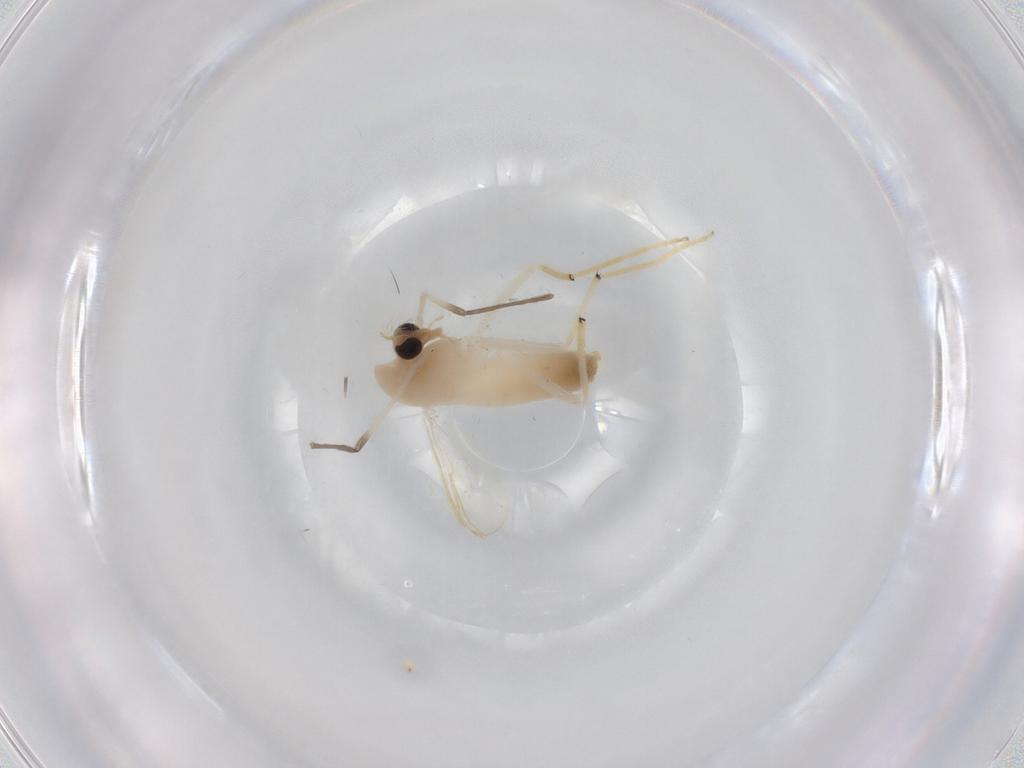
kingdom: Animalia
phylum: Arthropoda
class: Insecta
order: Diptera
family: Chironomidae
